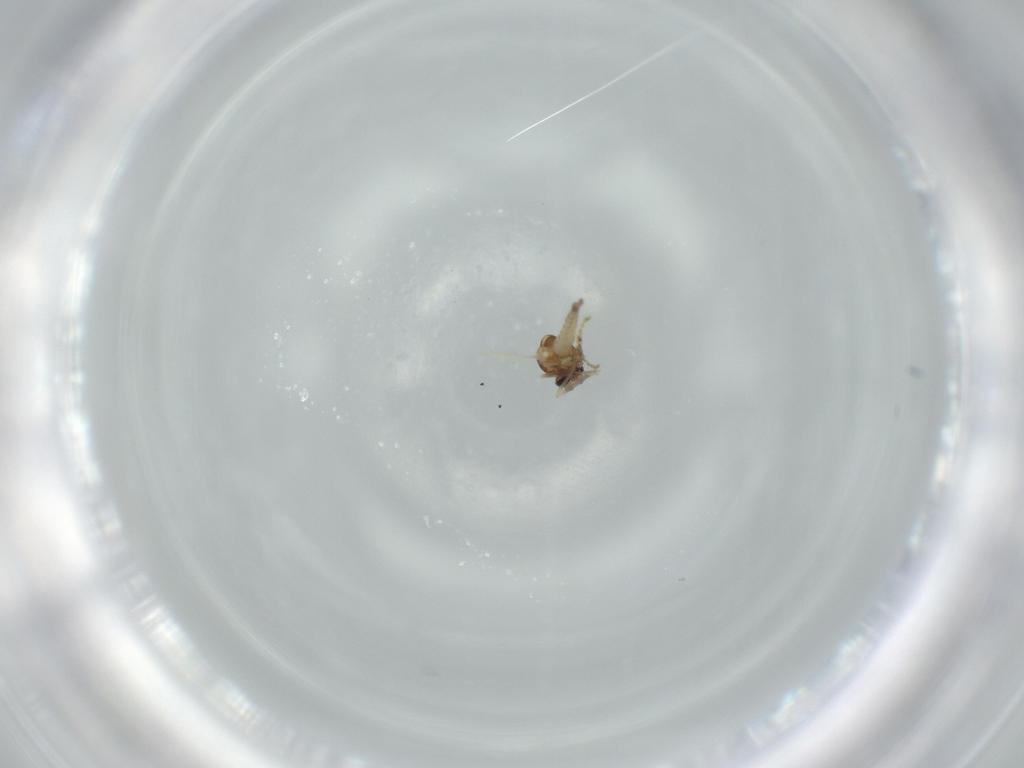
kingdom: Animalia
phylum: Arthropoda
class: Insecta
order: Diptera
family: Ceratopogonidae
